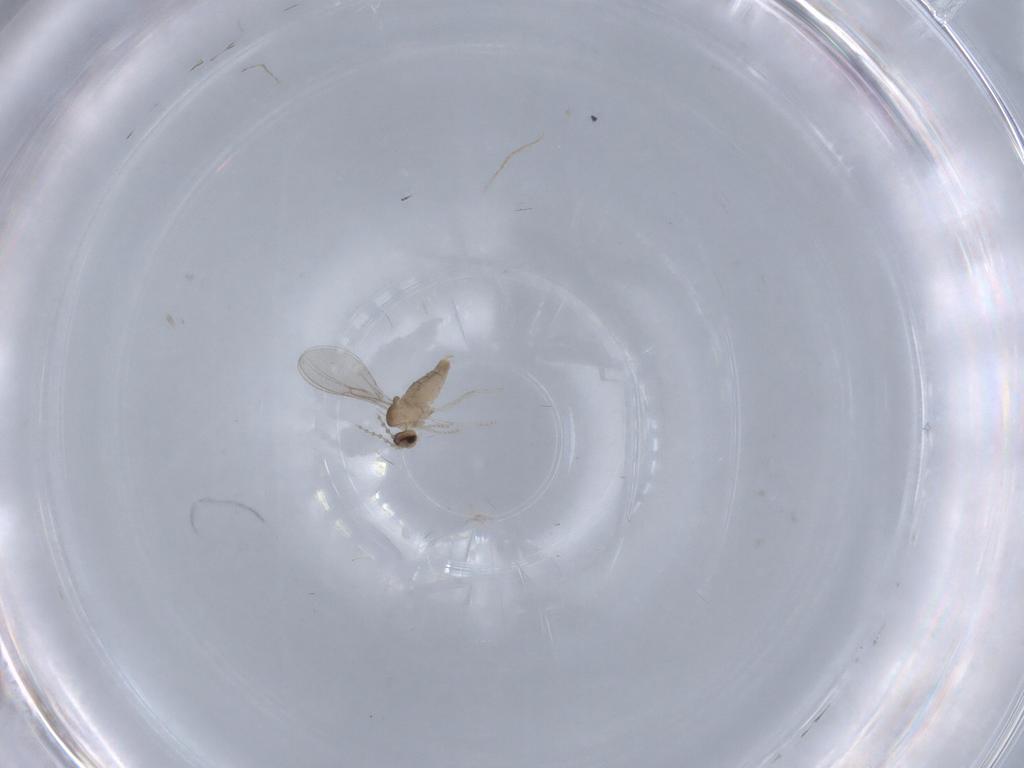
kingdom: Animalia
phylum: Arthropoda
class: Insecta
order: Diptera
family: Cecidomyiidae
